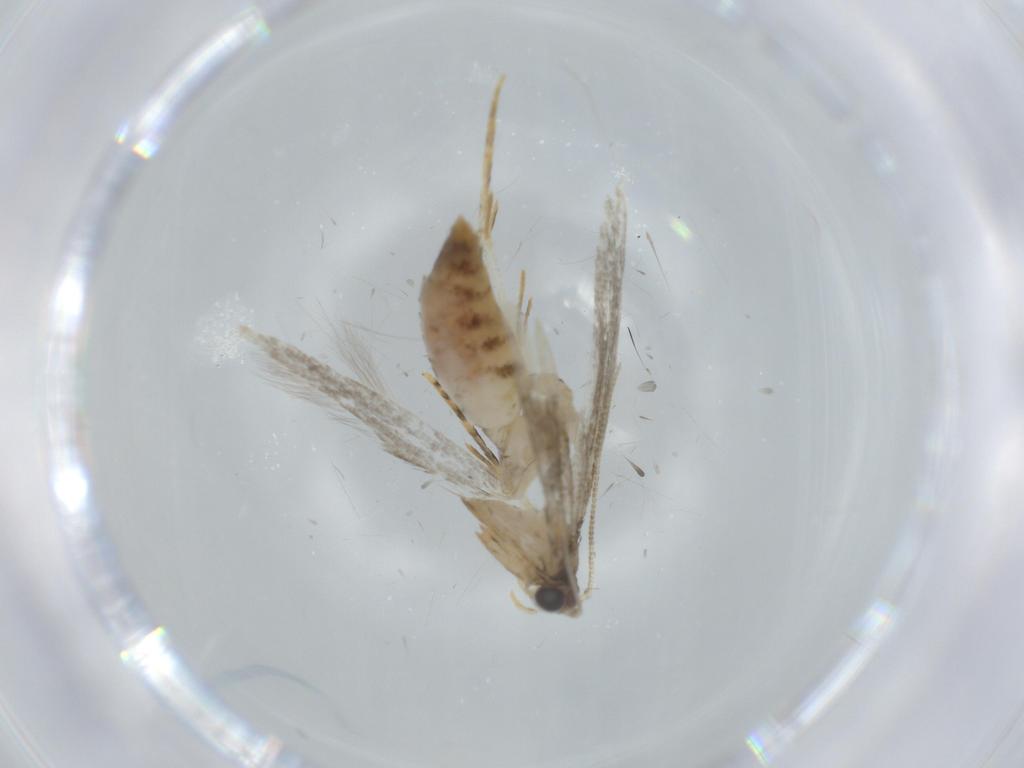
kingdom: Animalia
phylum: Arthropoda
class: Insecta
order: Lepidoptera
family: Tineidae
